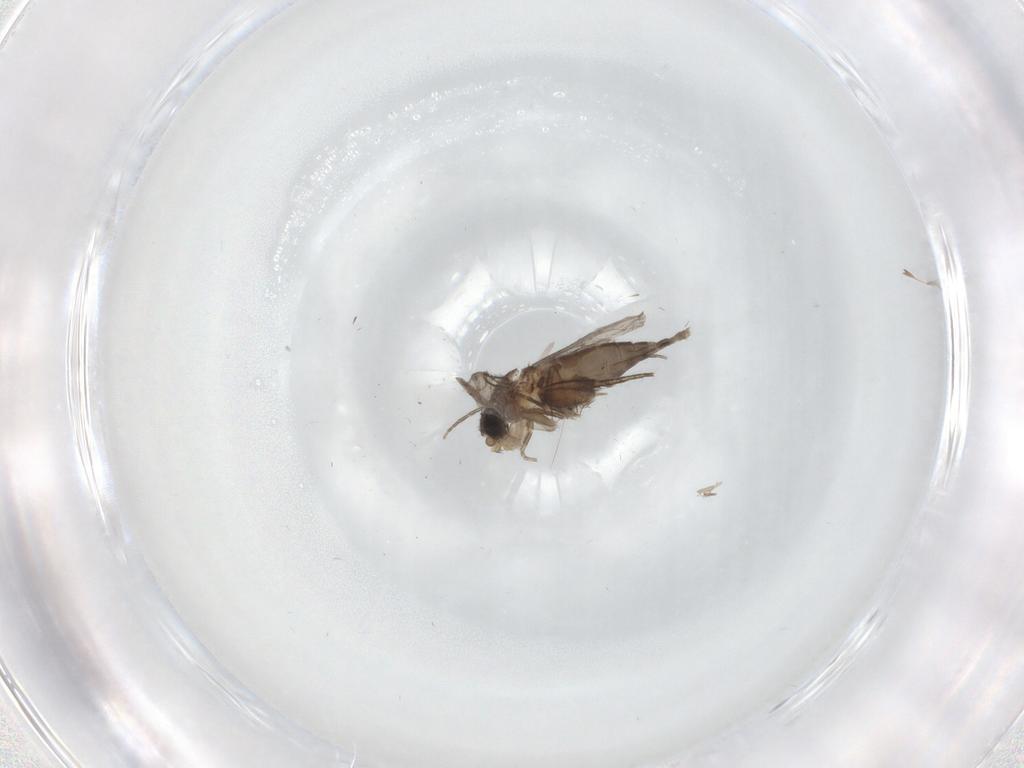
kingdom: Animalia
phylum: Arthropoda
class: Insecta
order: Diptera
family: Phoridae
